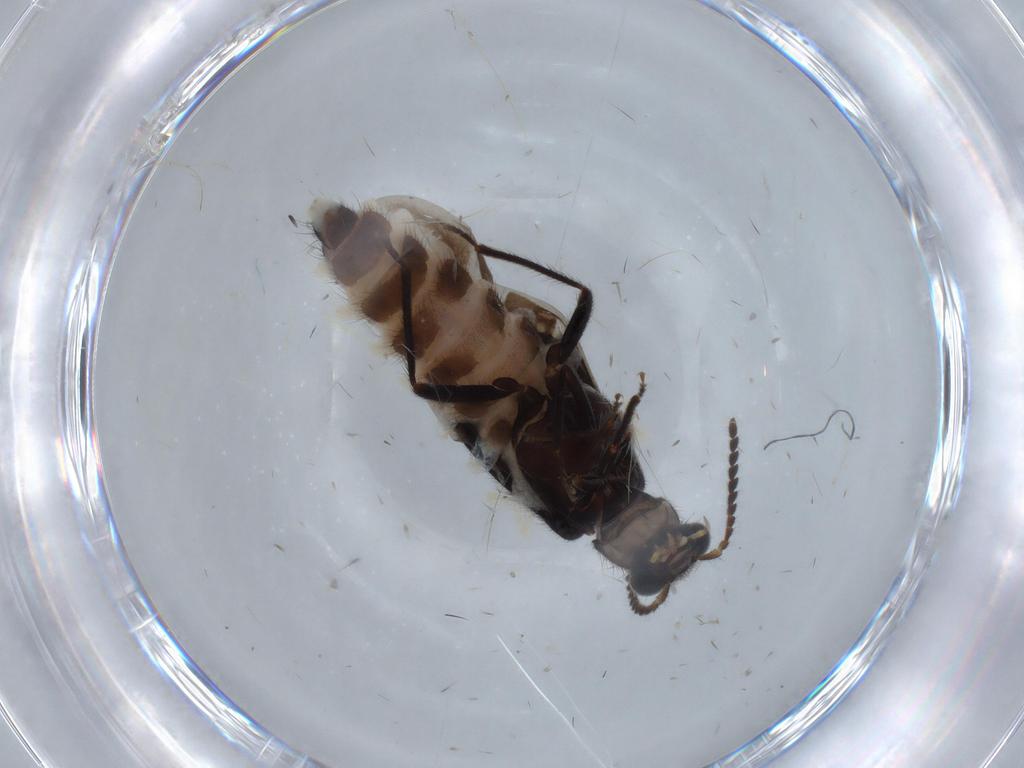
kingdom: Animalia
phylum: Arthropoda
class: Insecta
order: Coleoptera
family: Melyridae
